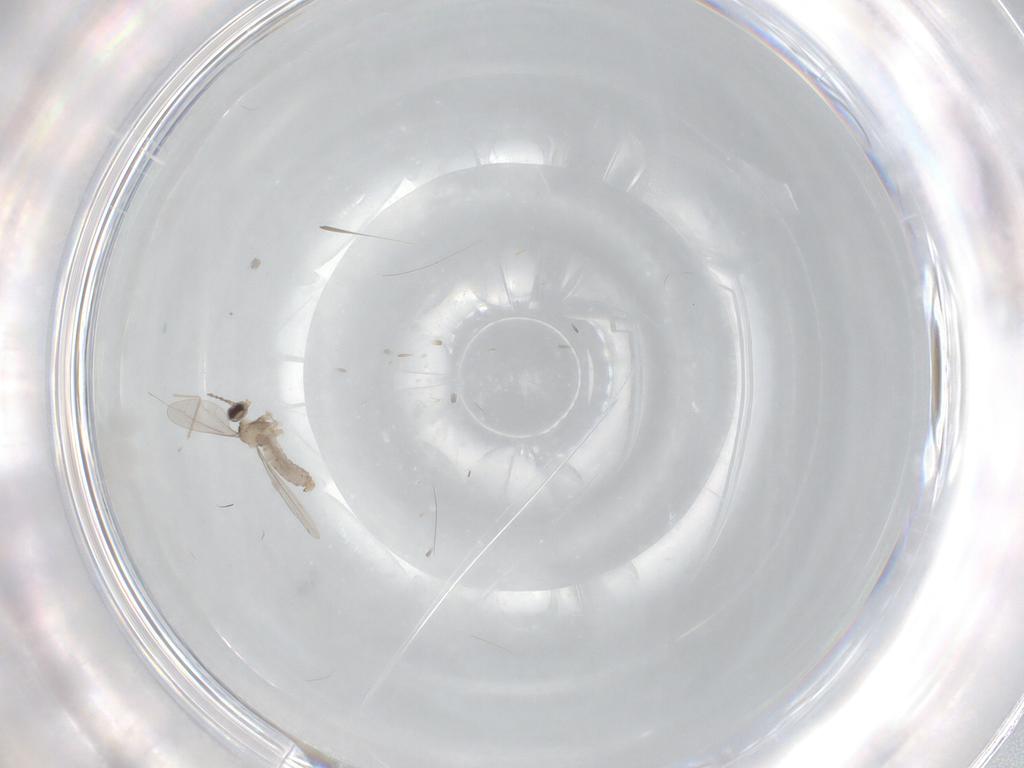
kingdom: Animalia
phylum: Arthropoda
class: Insecta
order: Diptera
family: Cecidomyiidae
